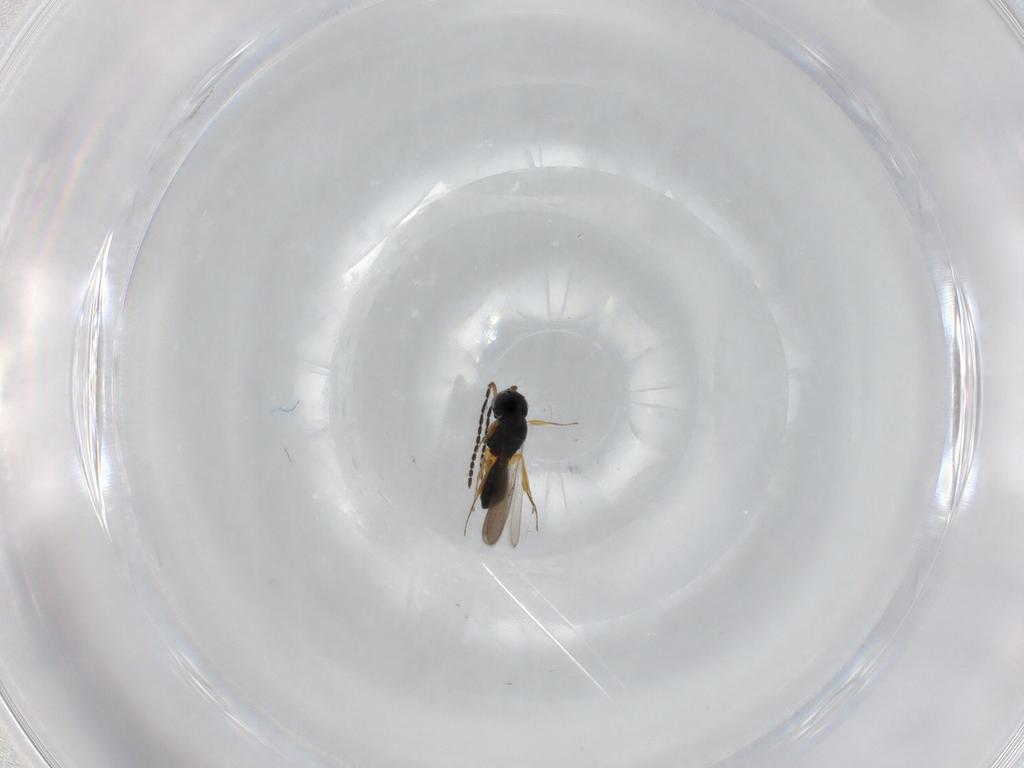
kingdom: Animalia
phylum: Arthropoda
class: Insecta
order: Hymenoptera
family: Scelionidae
